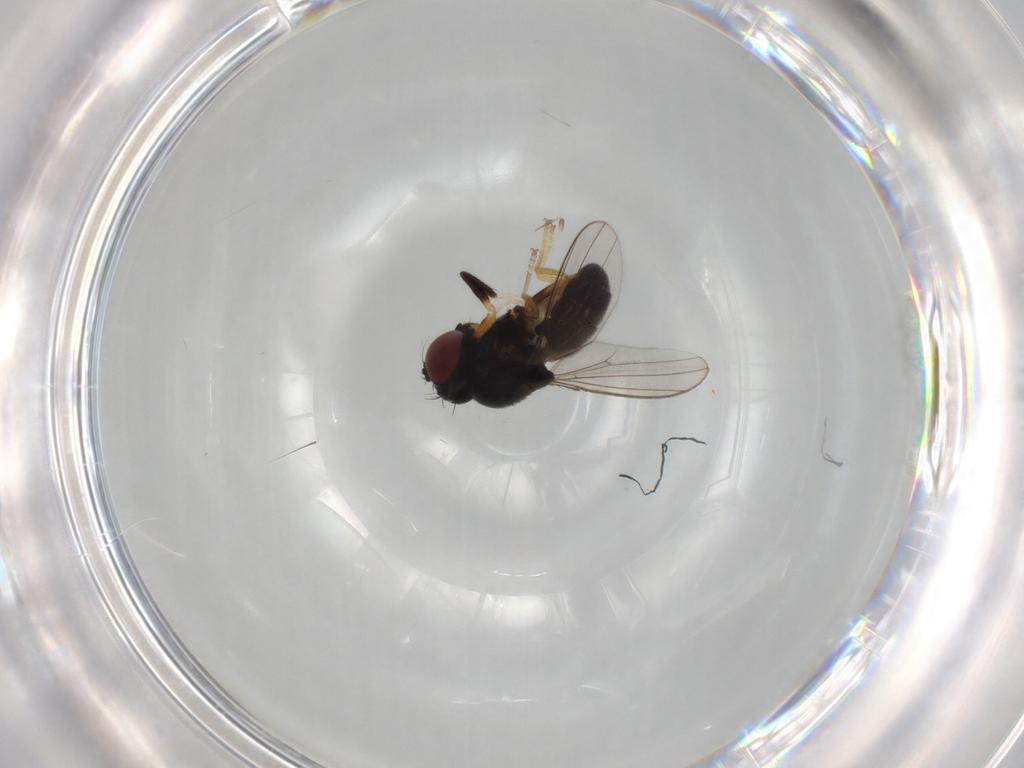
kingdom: Animalia
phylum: Arthropoda
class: Insecta
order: Diptera
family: Ephydridae
